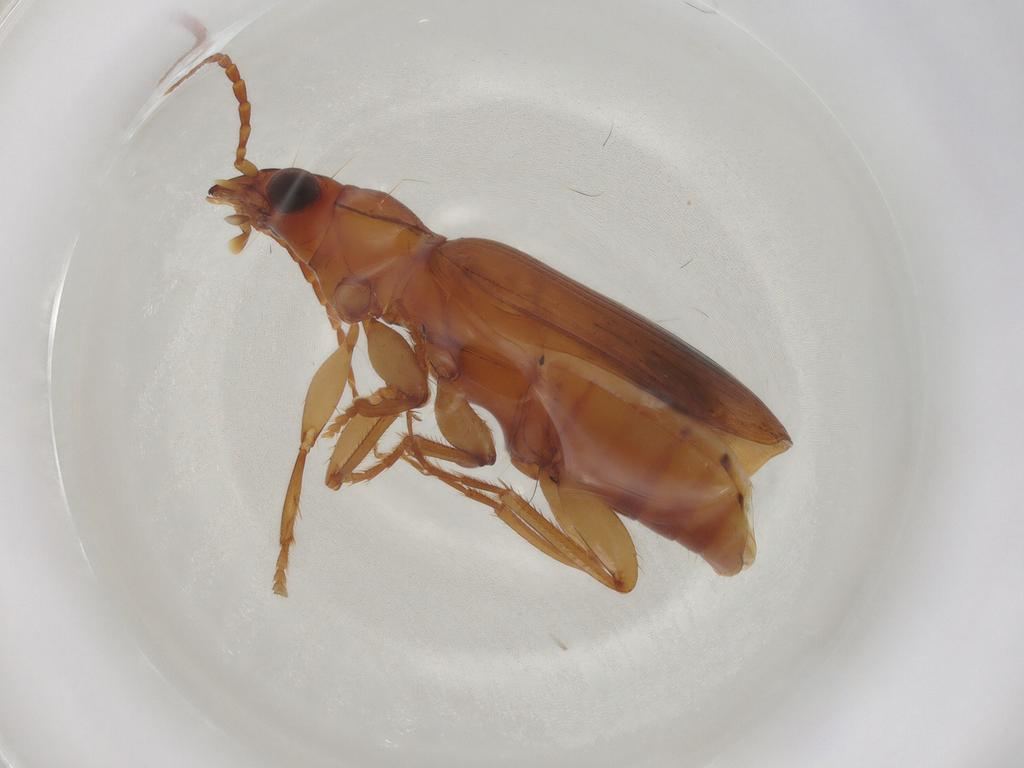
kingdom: Animalia
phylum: Arthropoda
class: Insecta
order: Coleoptera
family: Carabidae
